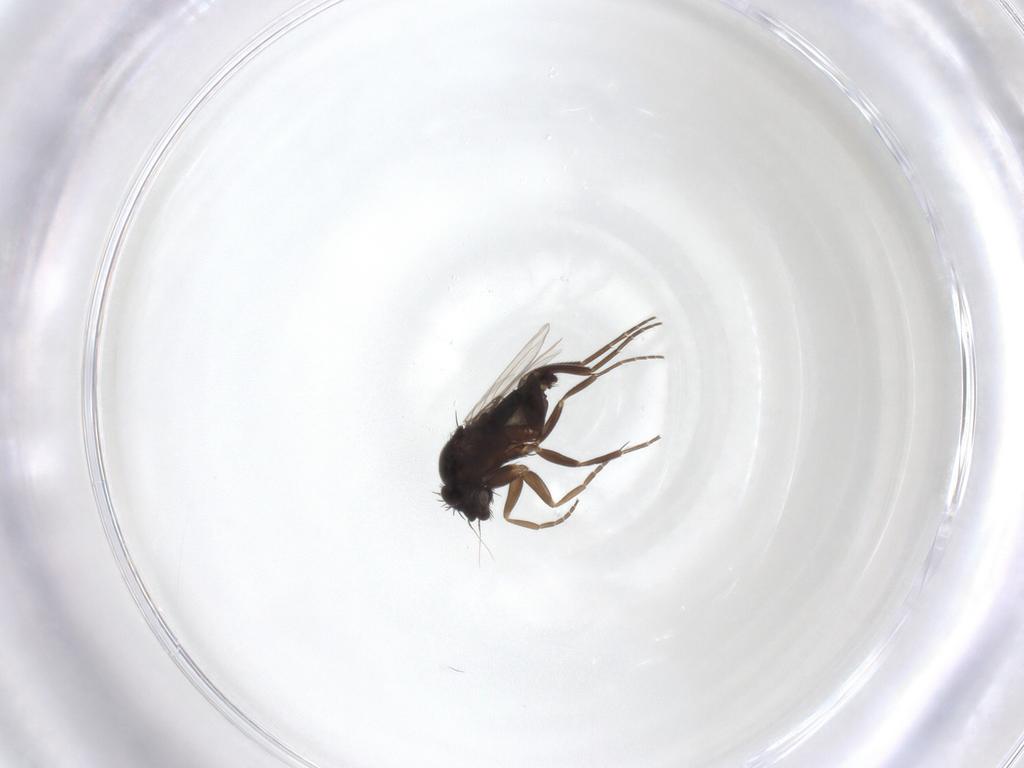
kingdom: Animalia
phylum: Arthropoda
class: Insecta
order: Diptera
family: Phoridae
